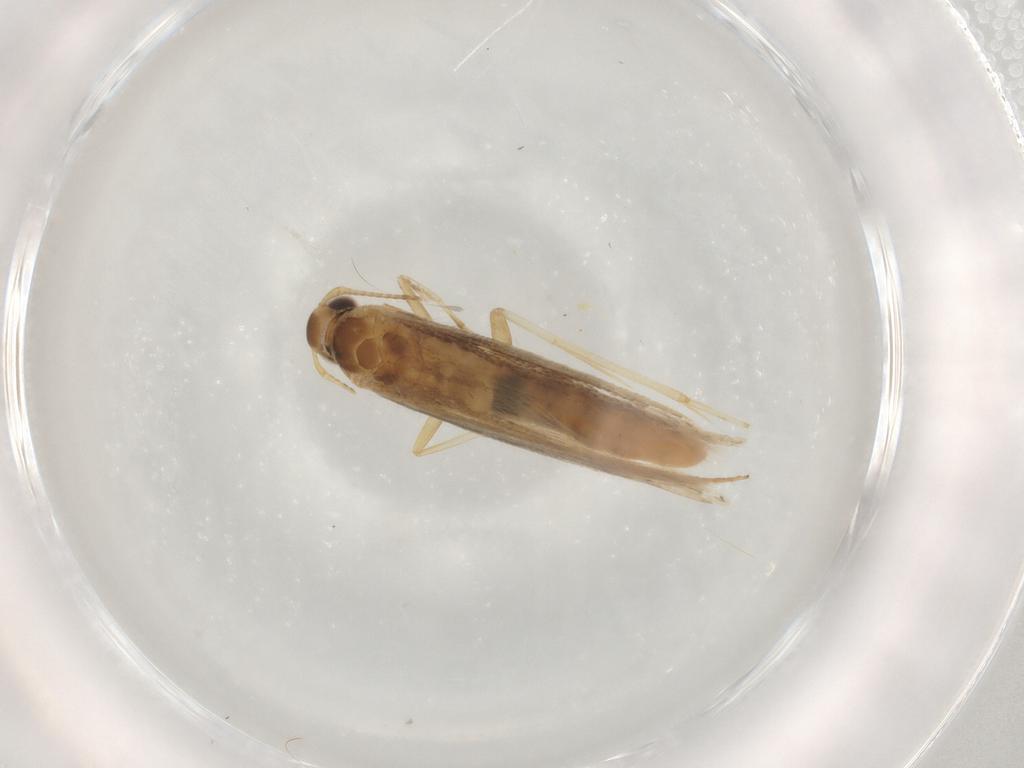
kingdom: Animalia
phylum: Arthropoda
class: Insecta
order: Lepidoptera
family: Gelechiidae
